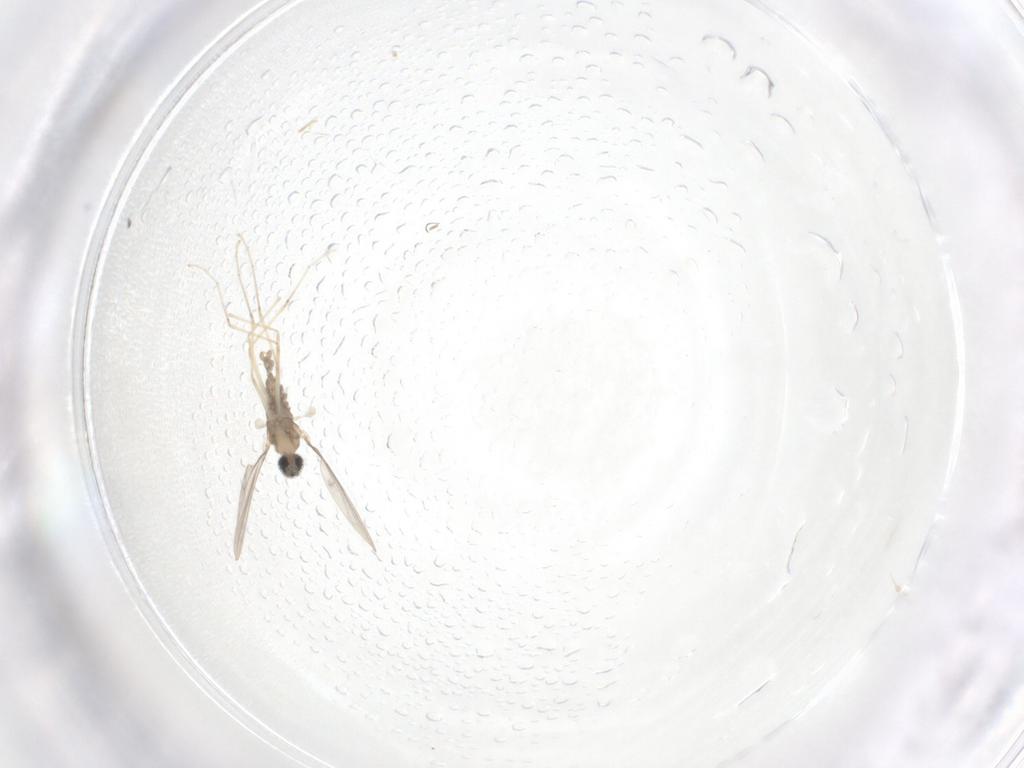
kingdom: Animalia
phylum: Arthropoda
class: Insecta
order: Diptera
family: Cecidomyiidae
